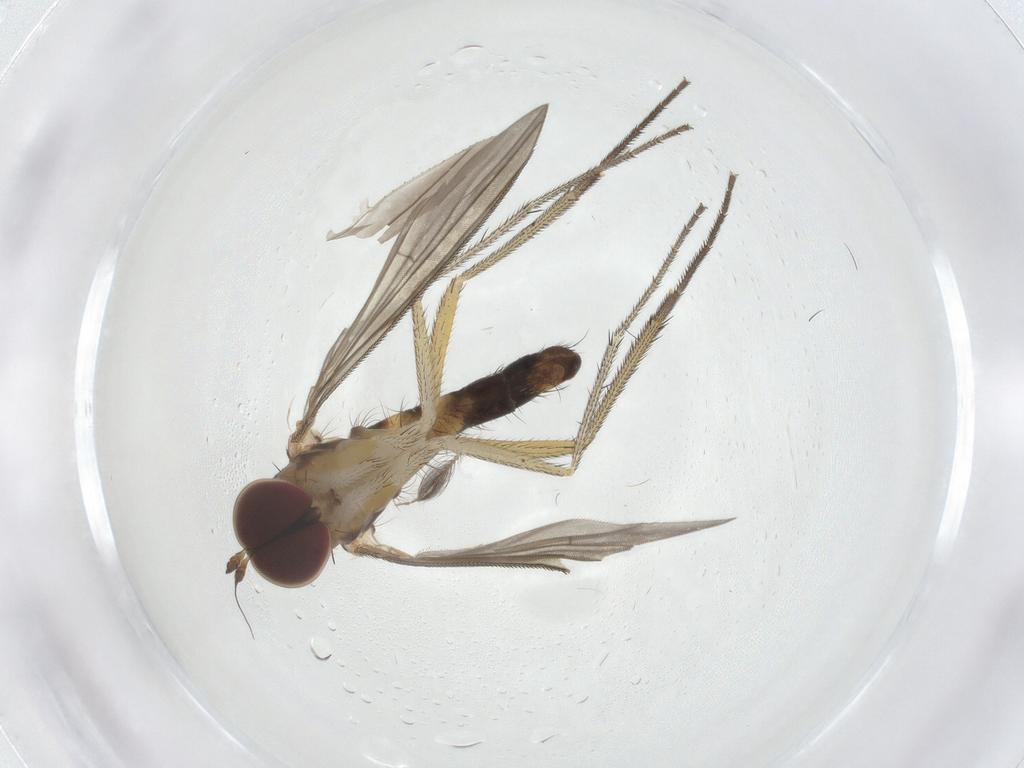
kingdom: Animalia
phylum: Arthropoda
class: Insecta
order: Diptera
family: Dolichopodidae
